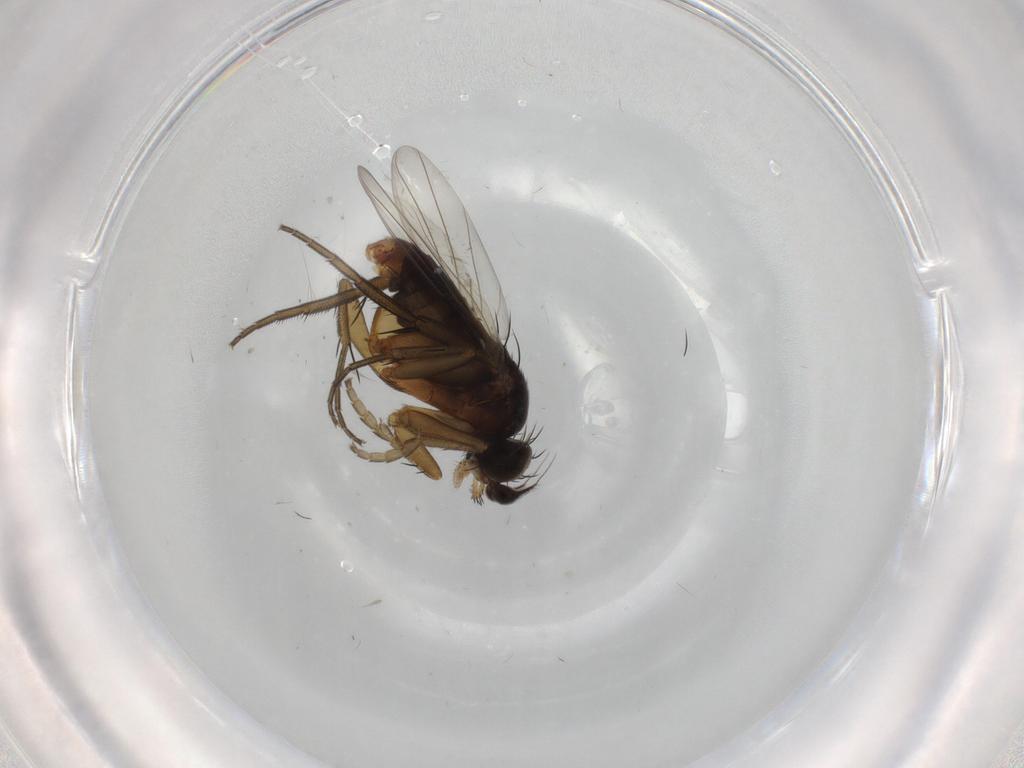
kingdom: Animalia
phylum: Arthropoda
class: Insecta
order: Diptera
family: Phoridae
